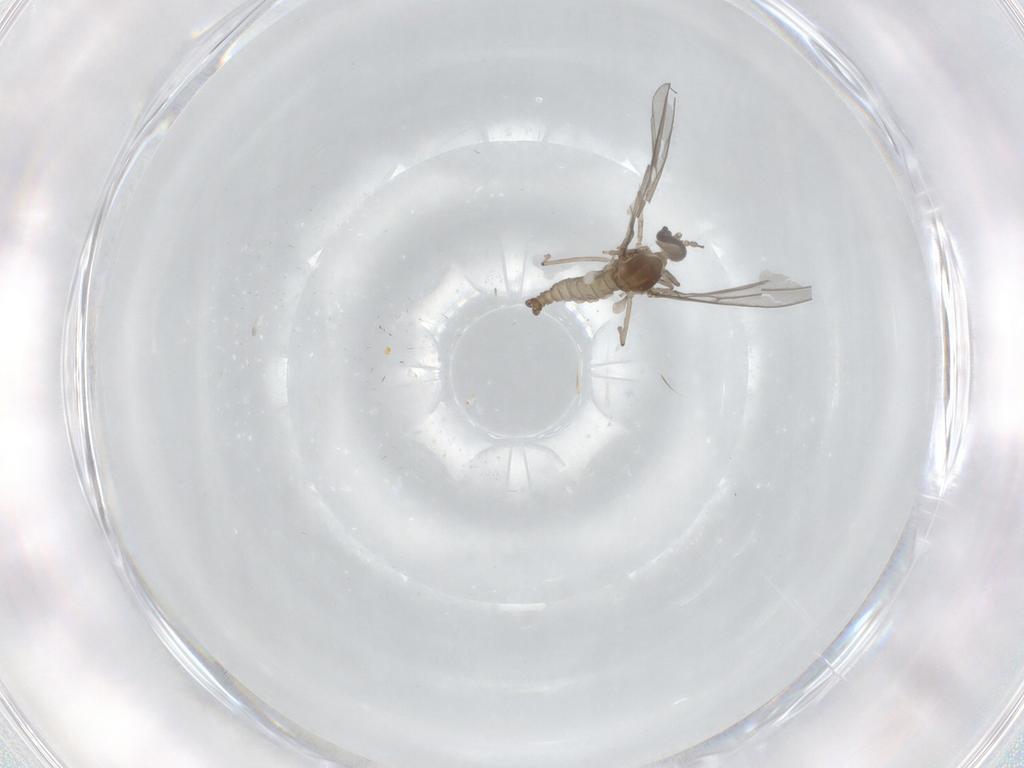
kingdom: Animalia
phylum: Arthropoda
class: Insecta
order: Diptera
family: Cecidomyiidae
